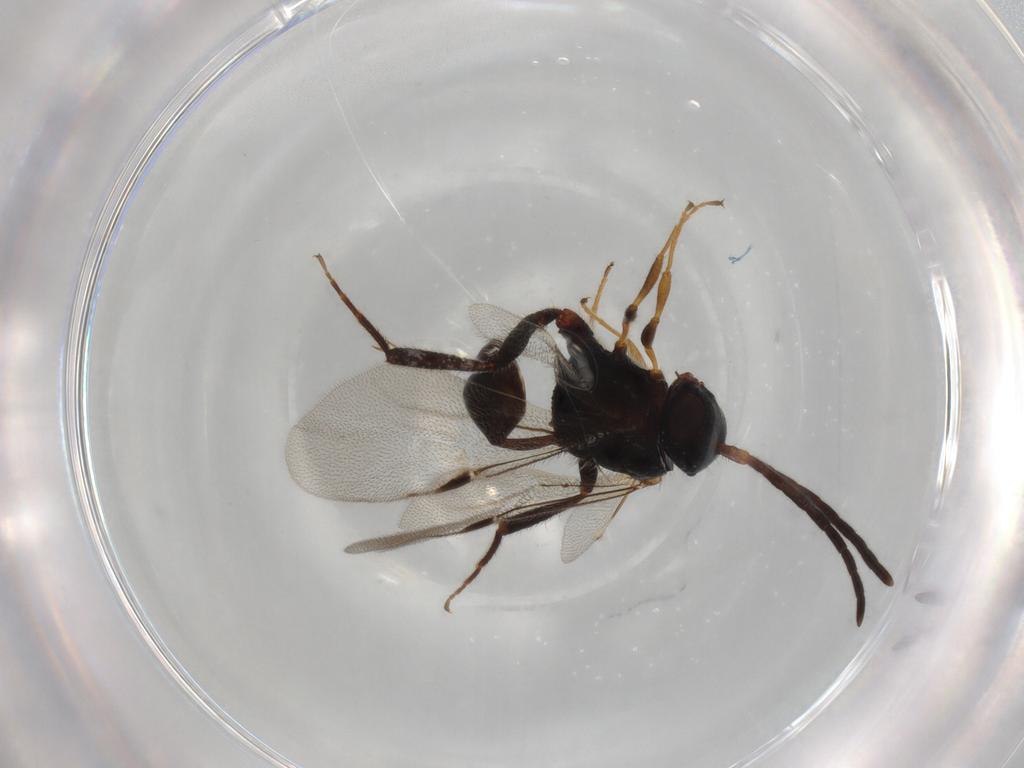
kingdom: Animalia
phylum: Arthropoda
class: Insecta
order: Hymenoptera
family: Evaniidae
